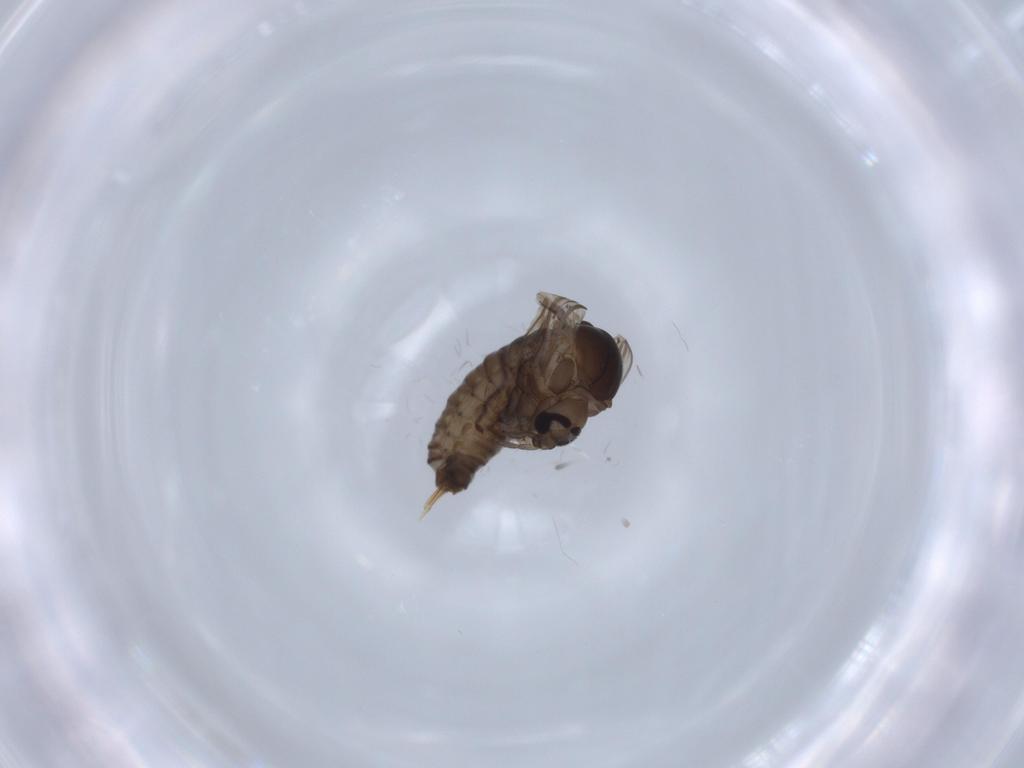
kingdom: Animalia
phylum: Arthropoda
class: Insecta
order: Diptera
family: Psychodidae
